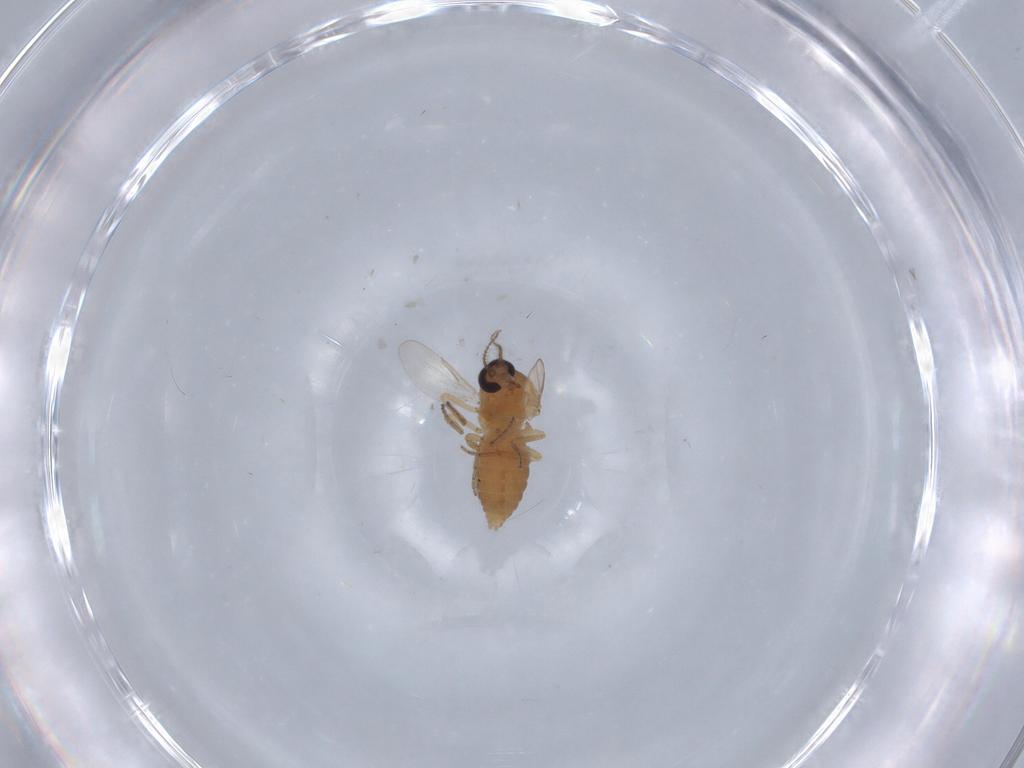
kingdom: Animalia
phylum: Arthropoda
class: Insecta
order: Diptera
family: Ceratopogonidae
